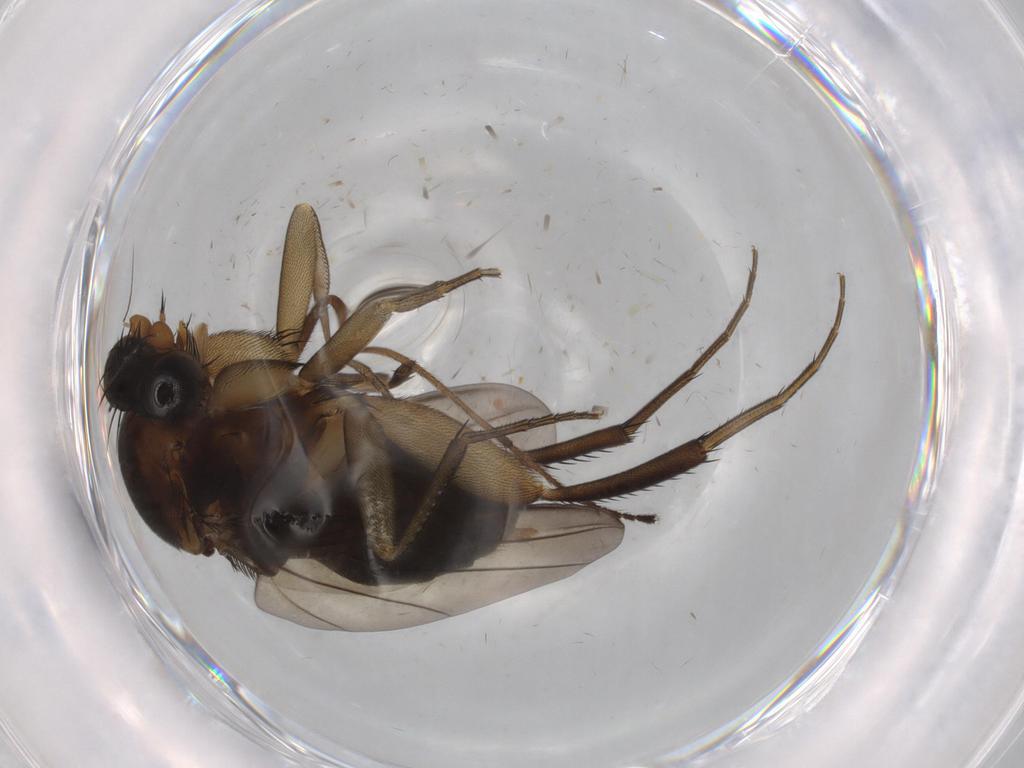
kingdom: Animalia
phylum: Arthropoda
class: Insecta
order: Diptera
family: Phoridae
